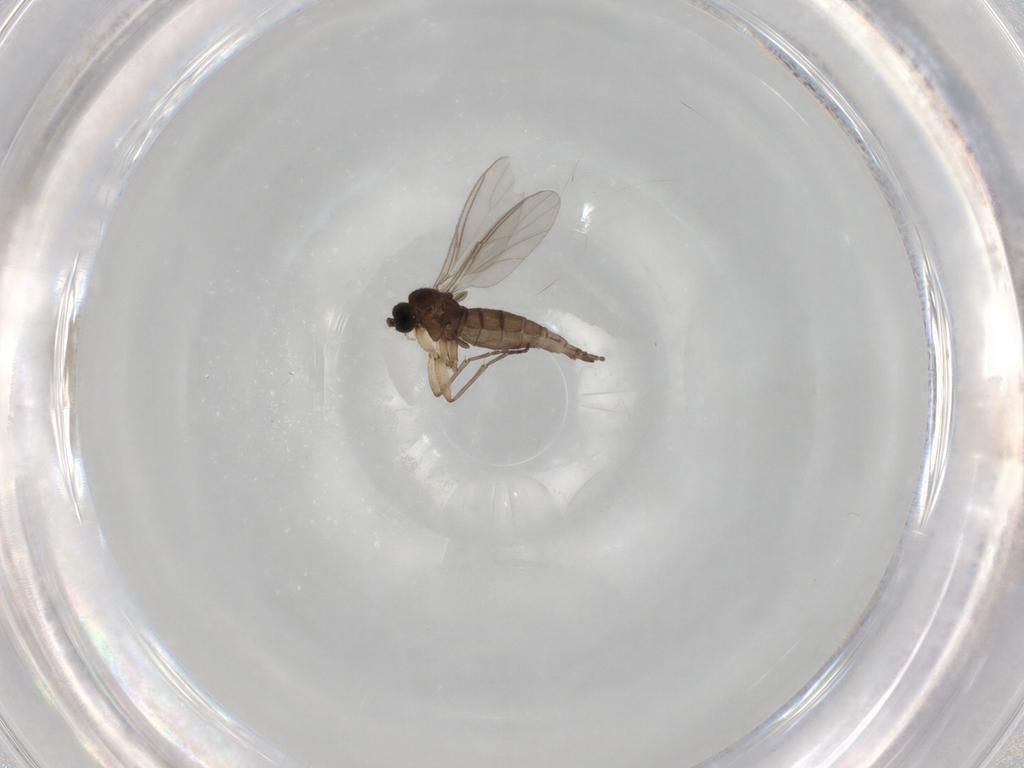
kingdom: Animalia
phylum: Arthropoda
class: Insecta
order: Diptera
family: Sciaridae
